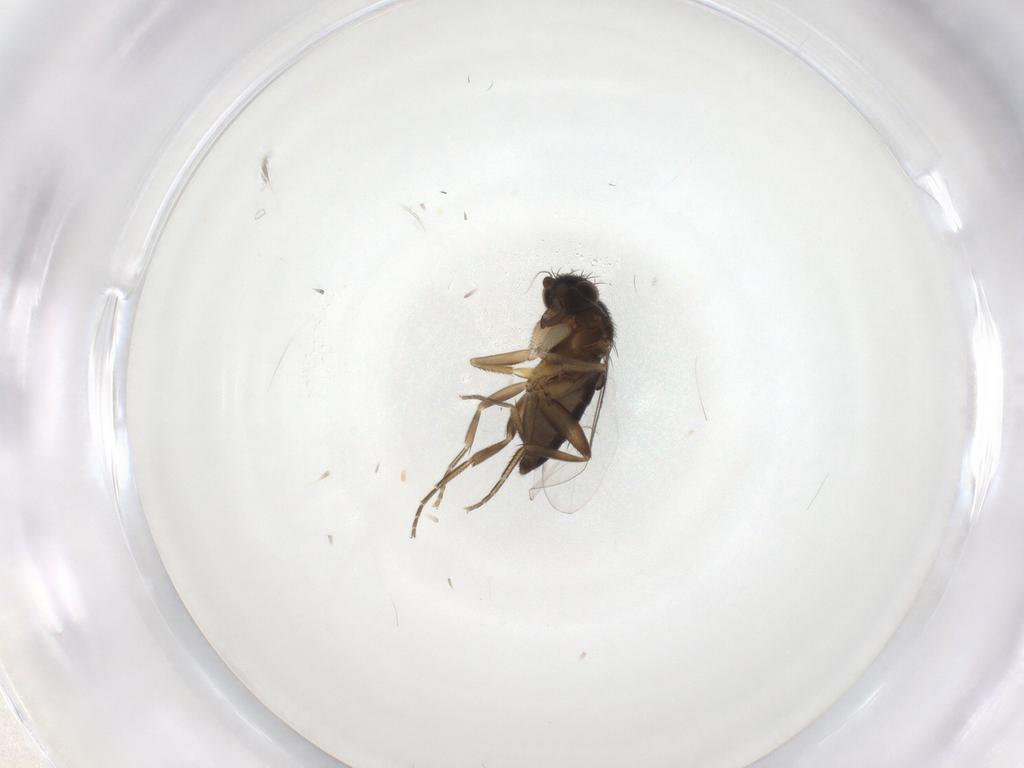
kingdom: Animalia
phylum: Arthropoda
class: Insecta
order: Diptera
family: Phoridae
